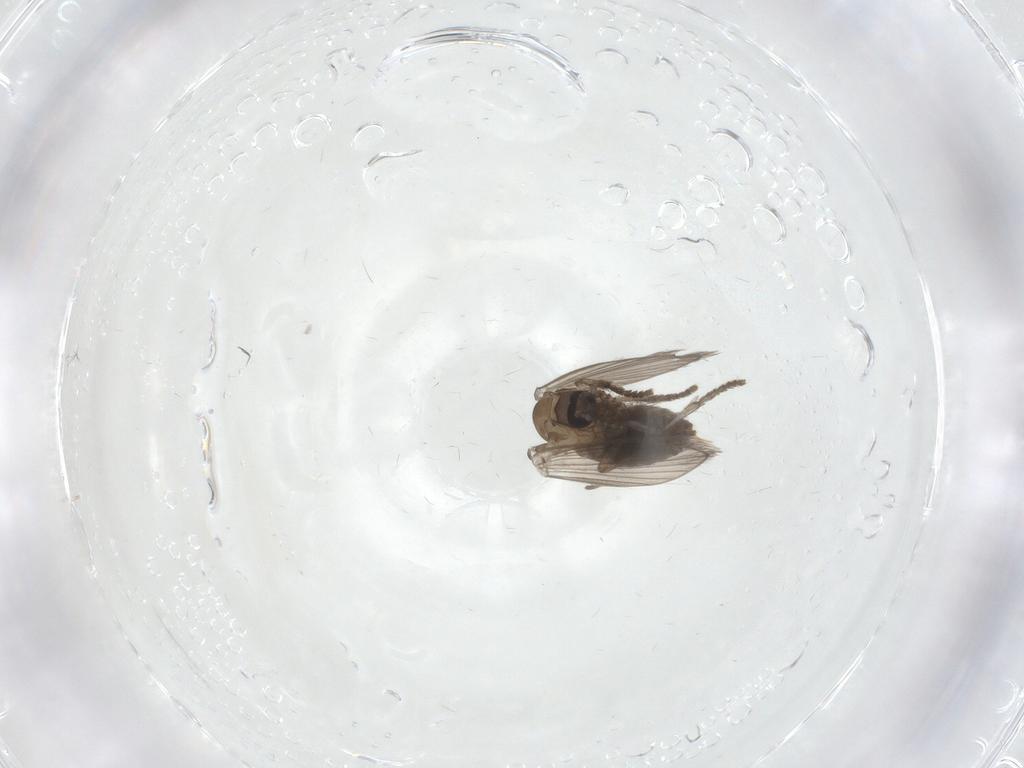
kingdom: Animalia
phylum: Arthropoda
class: Insecta
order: Diptera
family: Psychodidae
